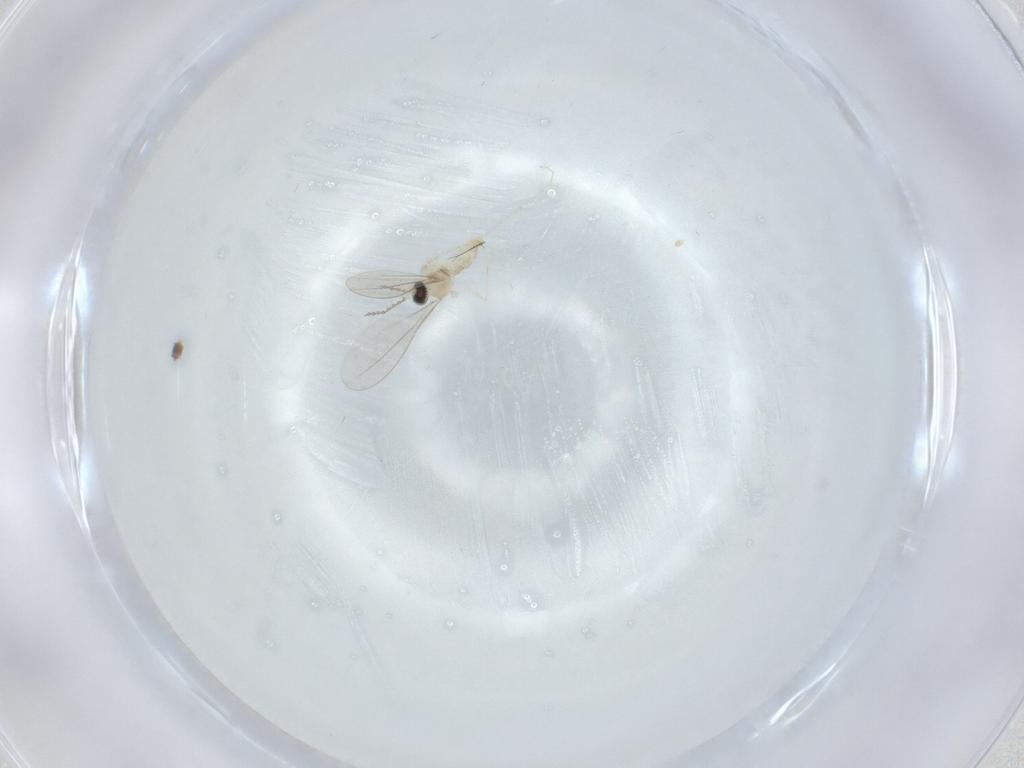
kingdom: Animalia
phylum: Arthropoda
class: Insecta
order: Diptera
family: Cecidomyiidae
